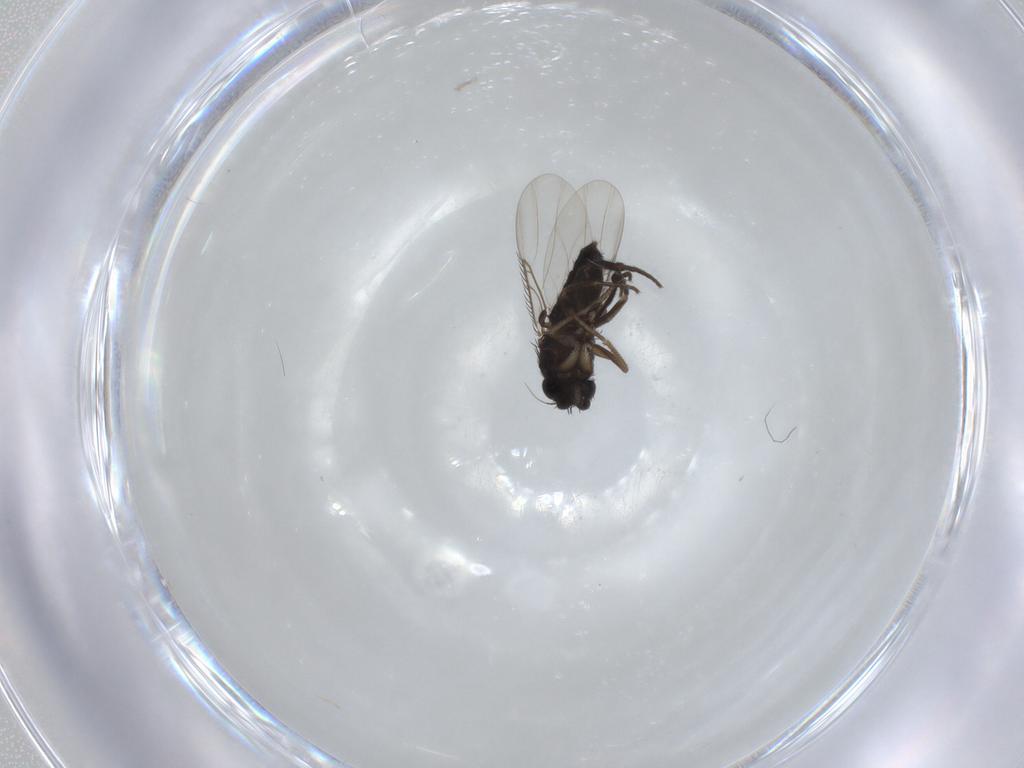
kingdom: Animalia
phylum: Arthropoda
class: Insecta
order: Diptera
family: Phoridae
